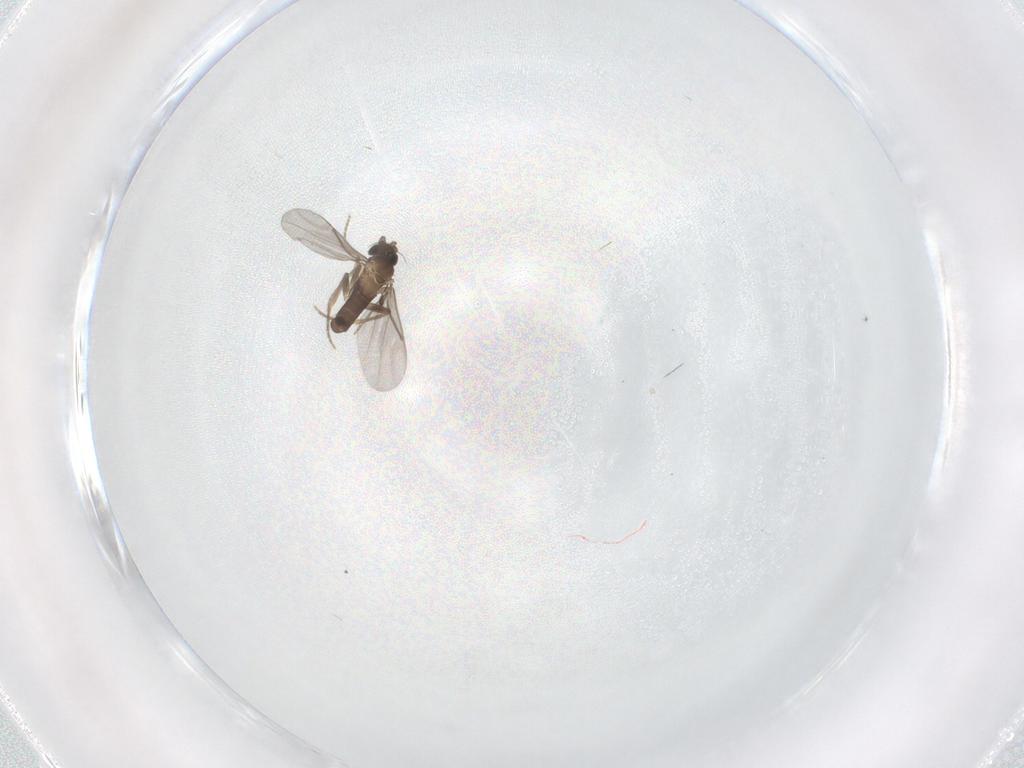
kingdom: Animalia
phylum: Arthropoda
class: Insecta
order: Diptera
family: Cecidomyiidae
